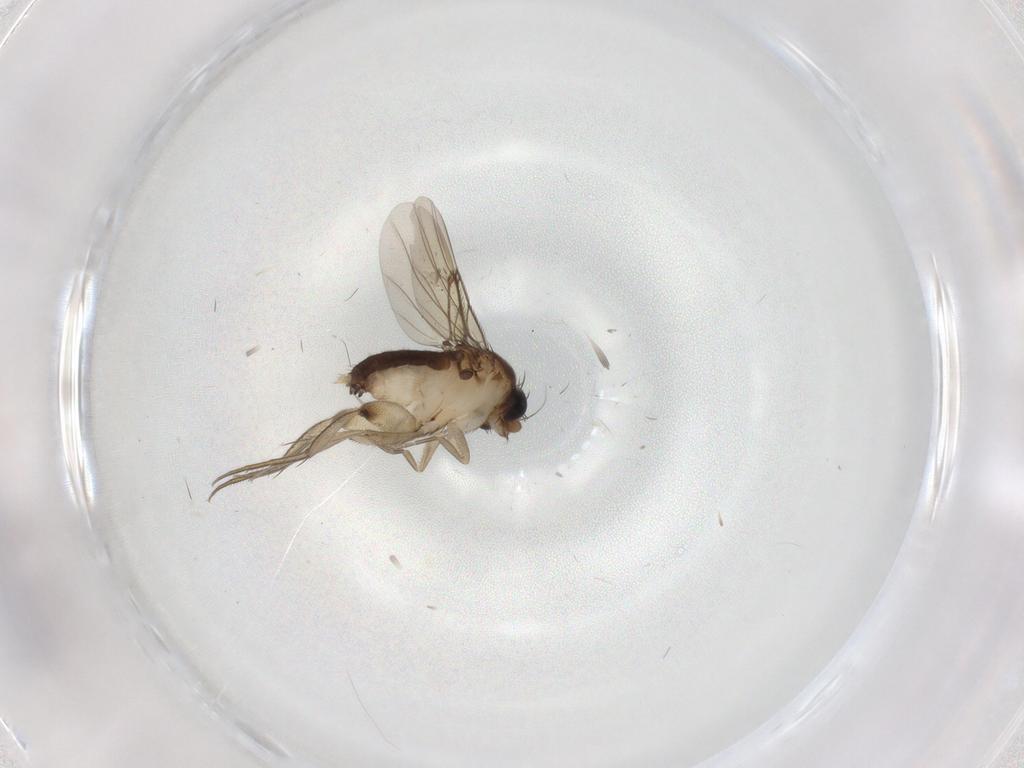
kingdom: Animalia
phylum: Arthropoda
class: Insecta
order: Diptera
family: Phoridae
